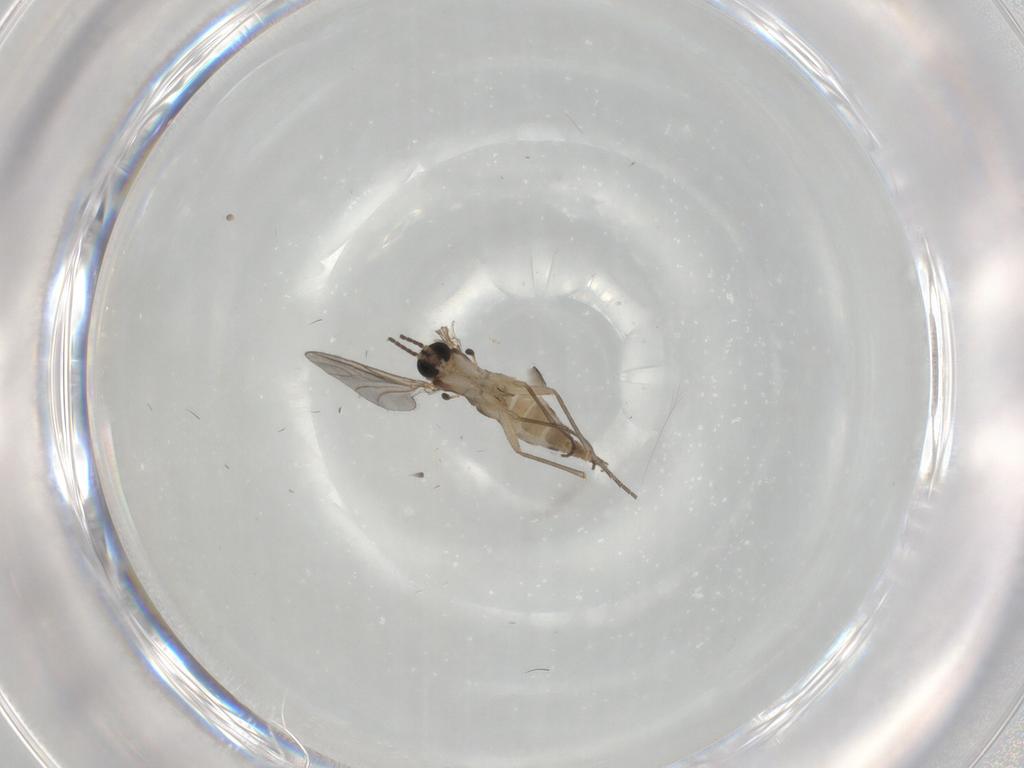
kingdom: Animalia
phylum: Arthropoda
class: Insecta
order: Diptera
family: Sciaridae
